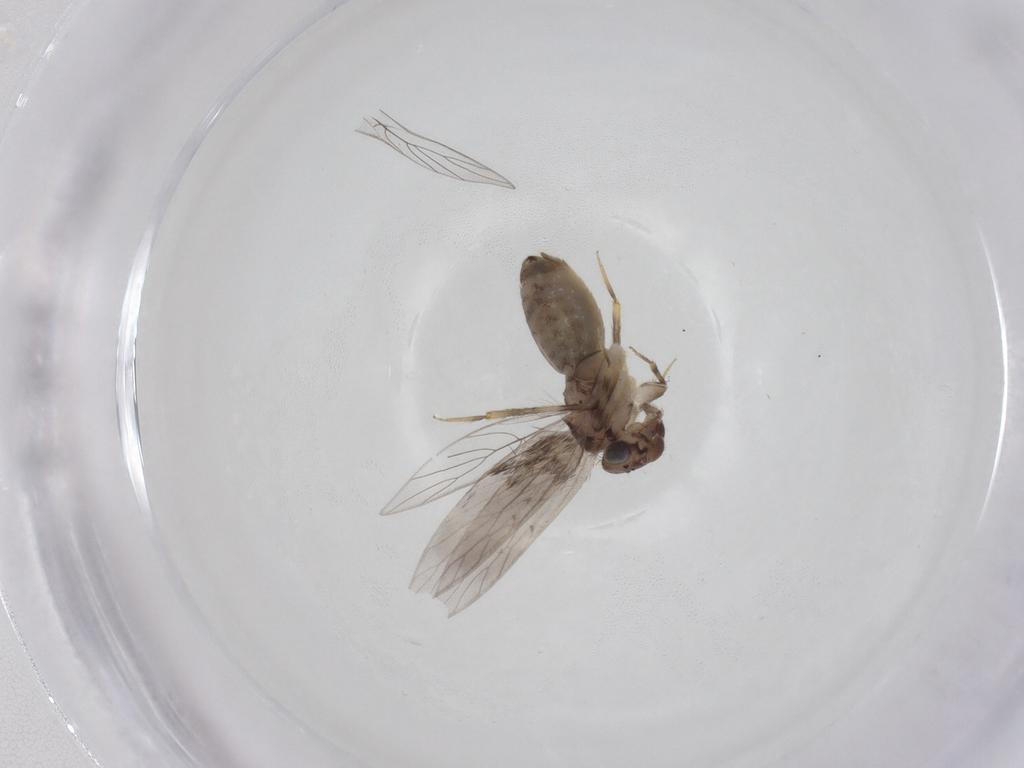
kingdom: Animalia
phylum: Arthropoda
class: Insecta
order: Psocodea
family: Lepidopsocidae
